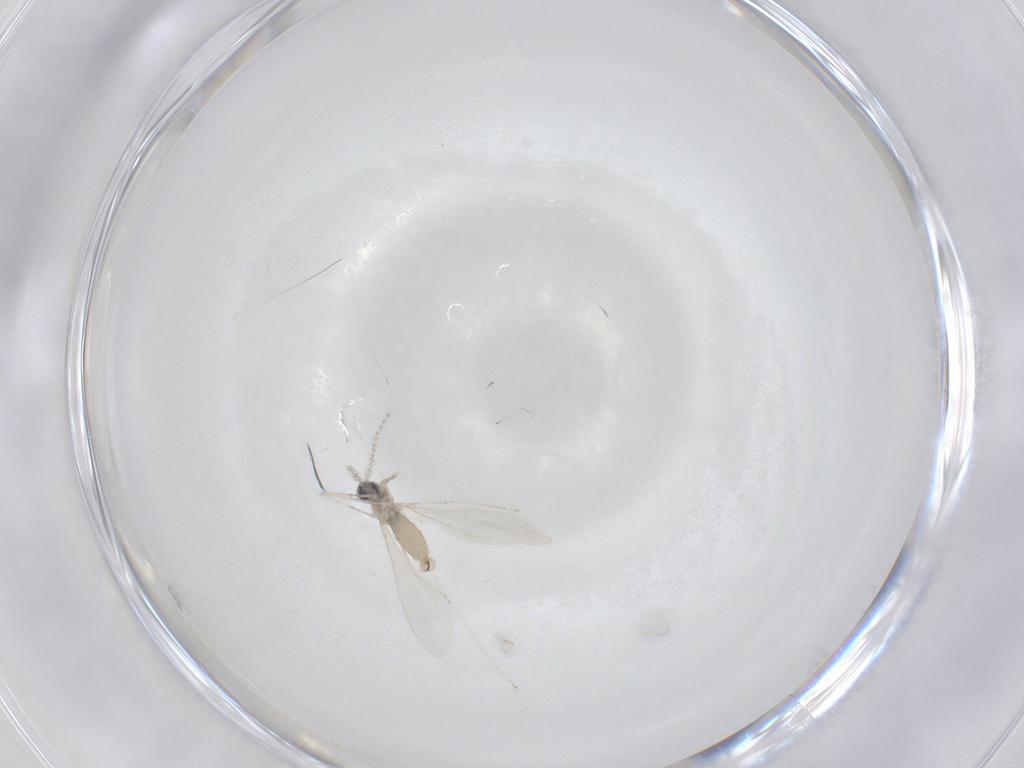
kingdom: Animalia
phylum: Arthropoda
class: Insecta
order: Diptera
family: Cecidomyiidae
